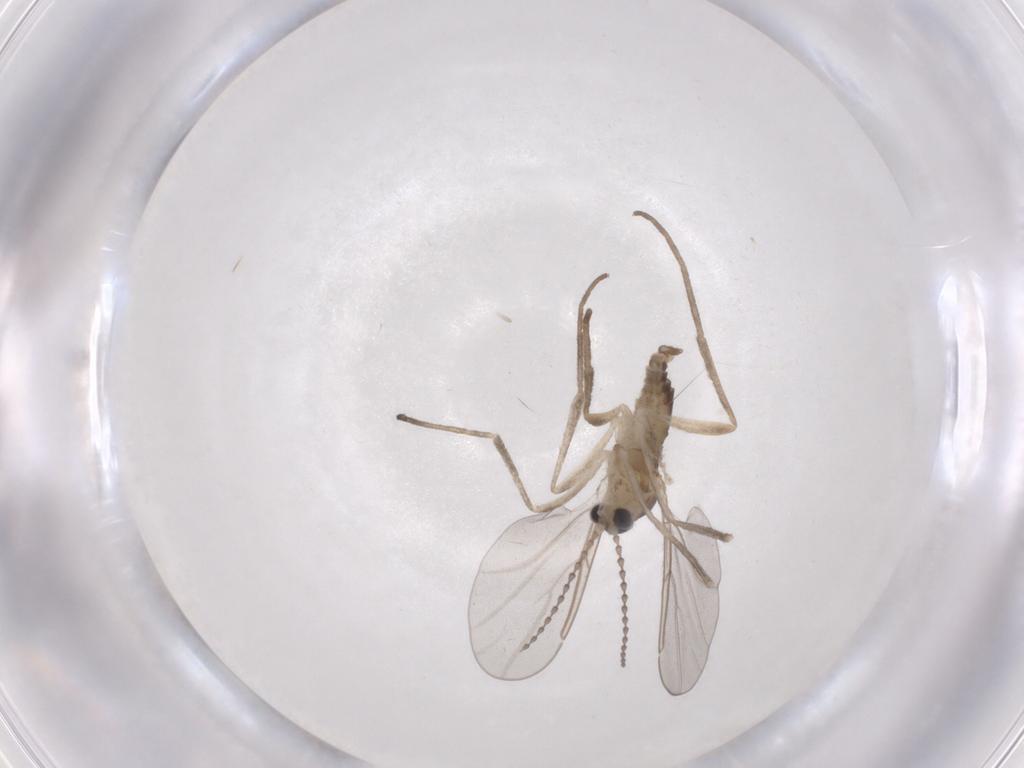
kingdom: Animalia
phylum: Arthropoda
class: Insecta
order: Diptera
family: Cecidomyiidae
